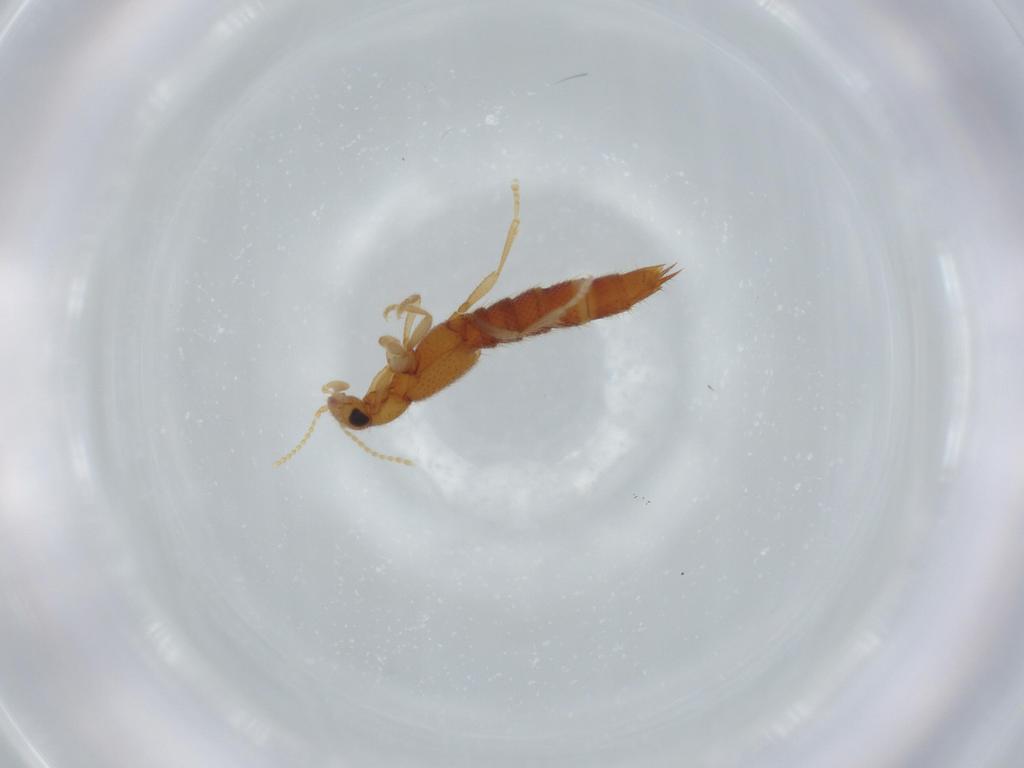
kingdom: Animalia
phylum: Arthropoda
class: Insecta
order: Coleoptera
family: Staphylinidae
